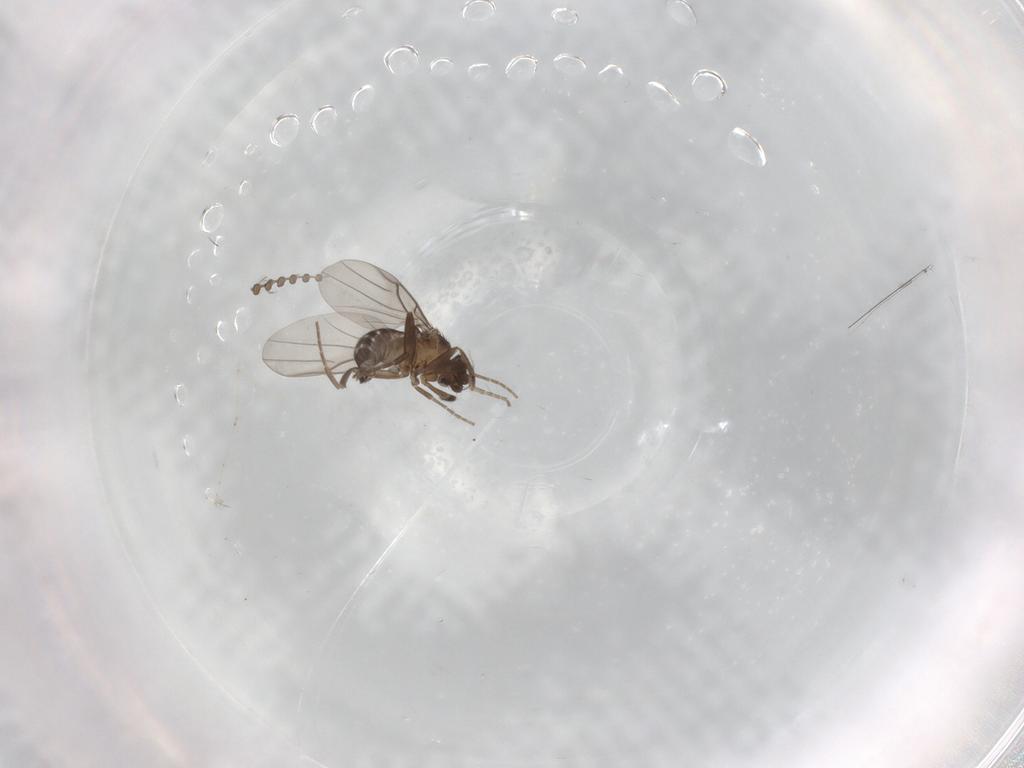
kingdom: Animalia
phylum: Arthropoda
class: Insecta
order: Diptera
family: Psychodidae
